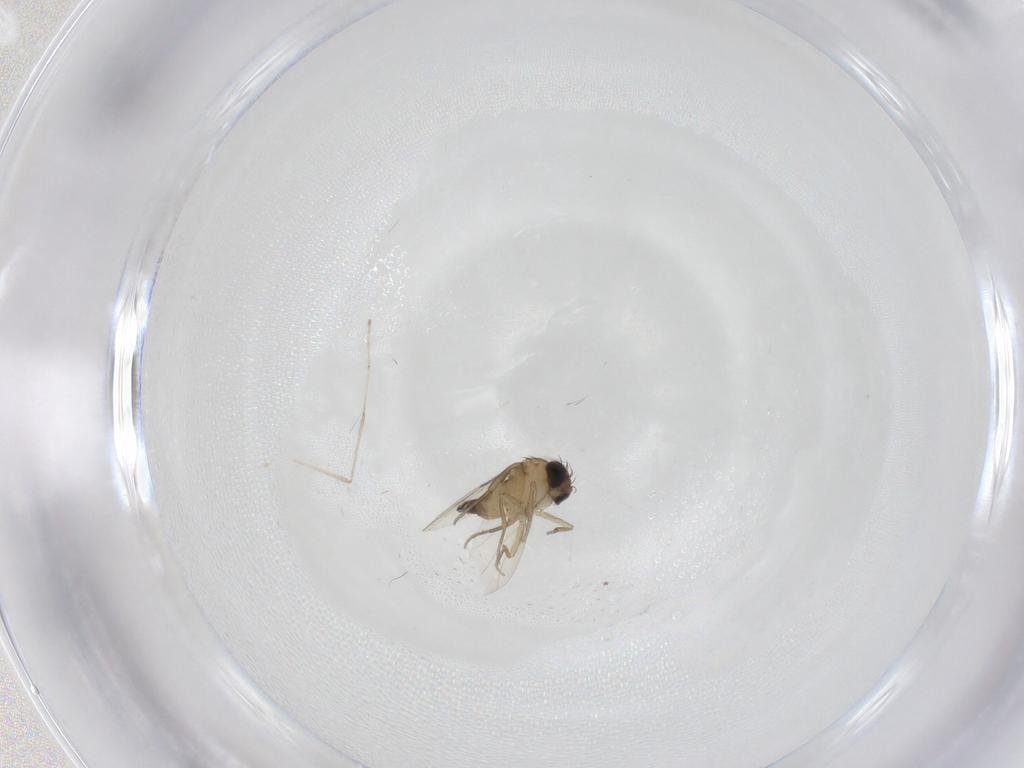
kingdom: Animalia
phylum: Arthropoda
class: Insecta
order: Diptera
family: Phoridae
